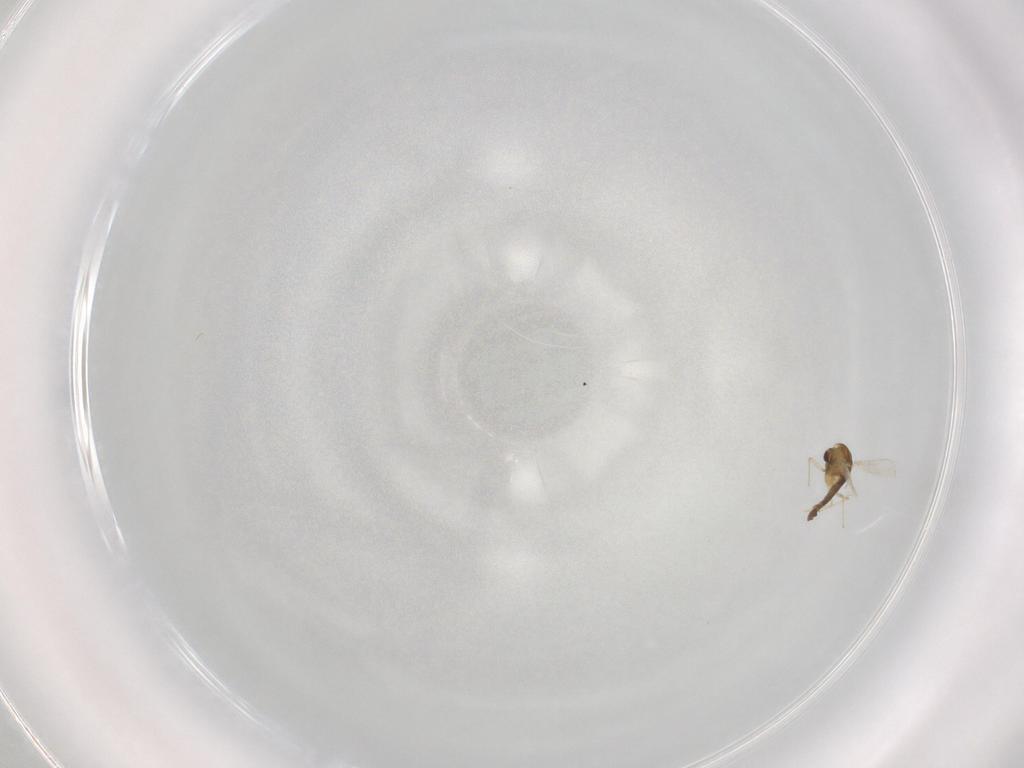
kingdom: Animalia
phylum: Arthropoda
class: Insecta
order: Diptera
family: Chironomidae
